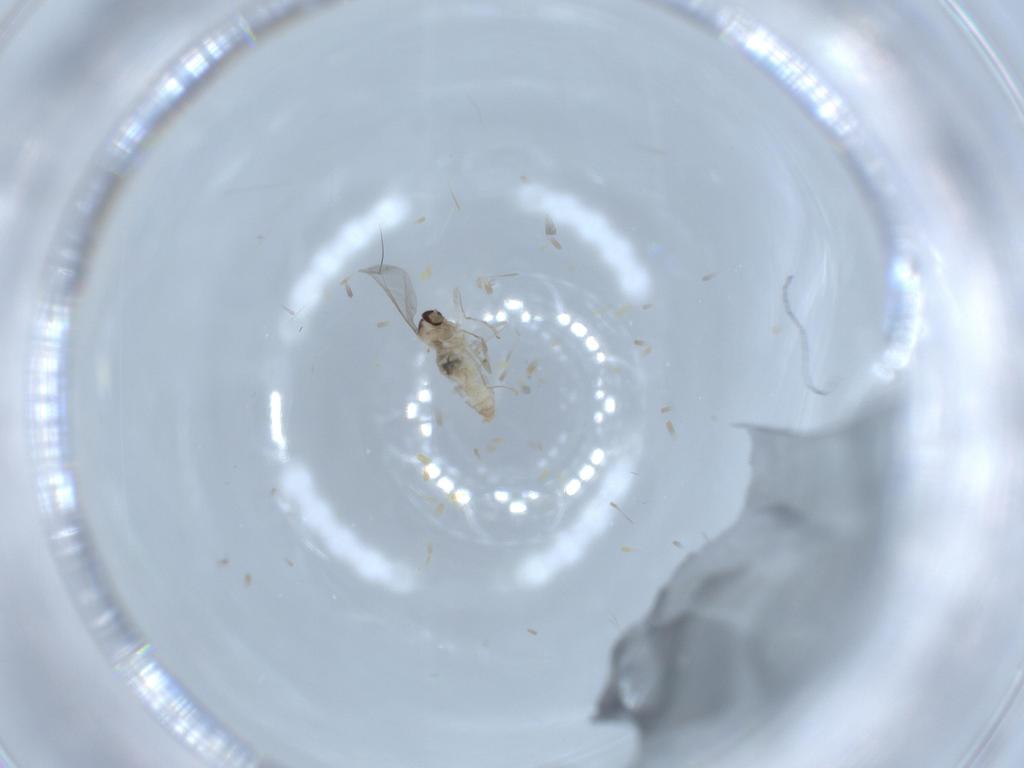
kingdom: Animalia
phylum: Arthropoda
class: Insecta
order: Diptera
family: Cecidomyiidae
